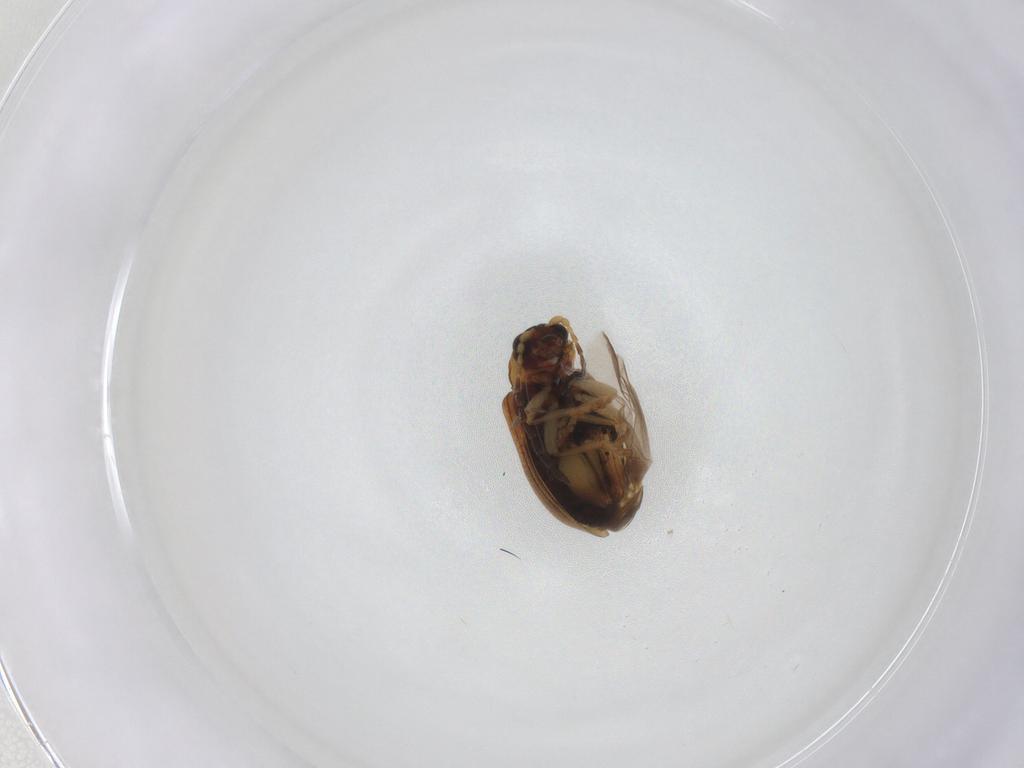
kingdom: Animalia
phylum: Arthropoda
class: Insecta
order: Coleoptera
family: Chrysomelidae
